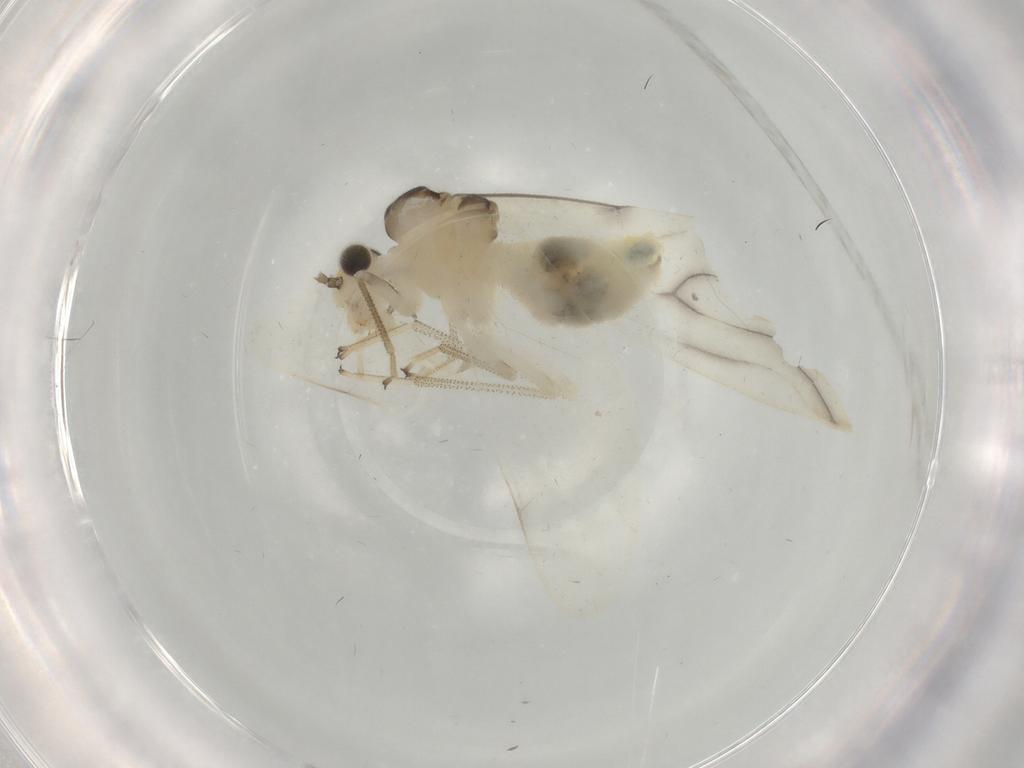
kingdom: Animalia
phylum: Arthropoda
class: Insecta
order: Psocodea
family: Caeciliusidae
